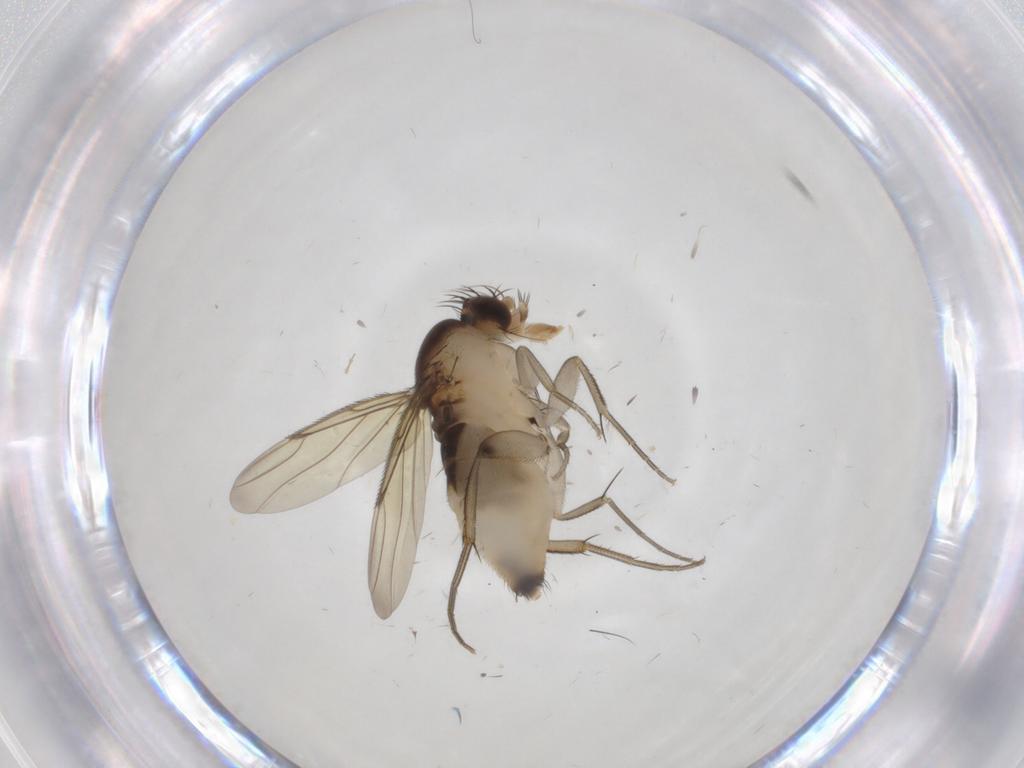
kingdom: Animalia
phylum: Arthropoda
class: Insecta
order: Diptera
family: Phoridae
